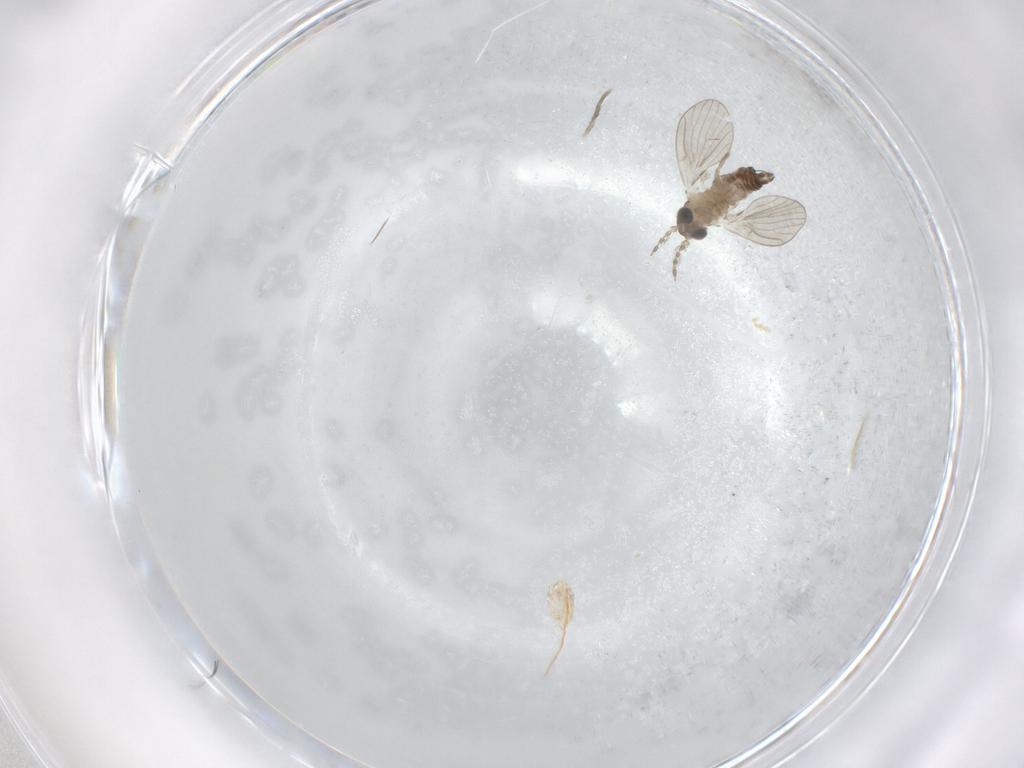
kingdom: Animalia
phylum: Arthropoda
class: Insecta
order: Diptera
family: Psychodidae
